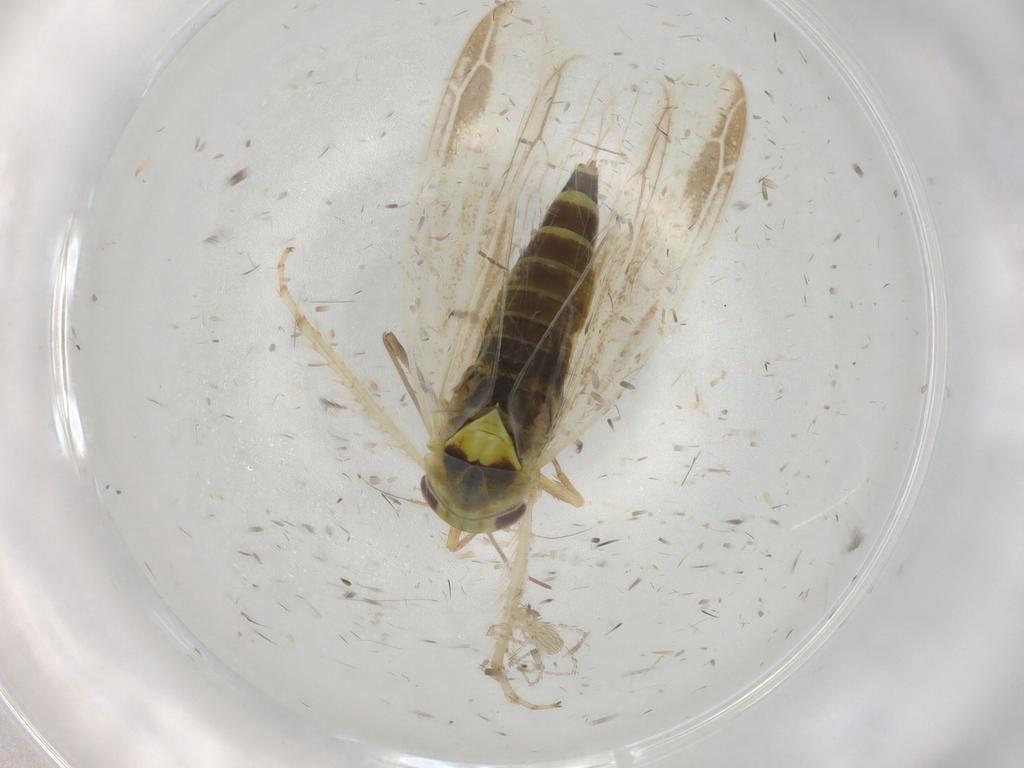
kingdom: Animalia
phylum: Arthropoda
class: Insecta
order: Hemiptera
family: Cicadellidae
